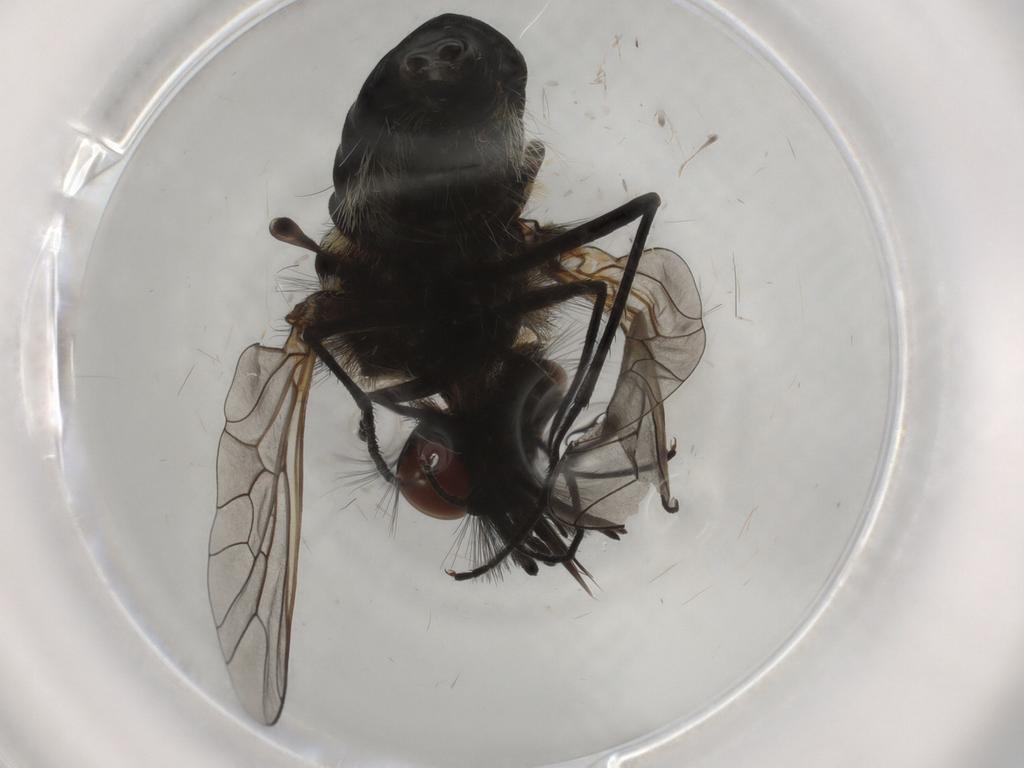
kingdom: Animalia
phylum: Arthropoda
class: Insecta
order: Diptera
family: Bombyliidae
